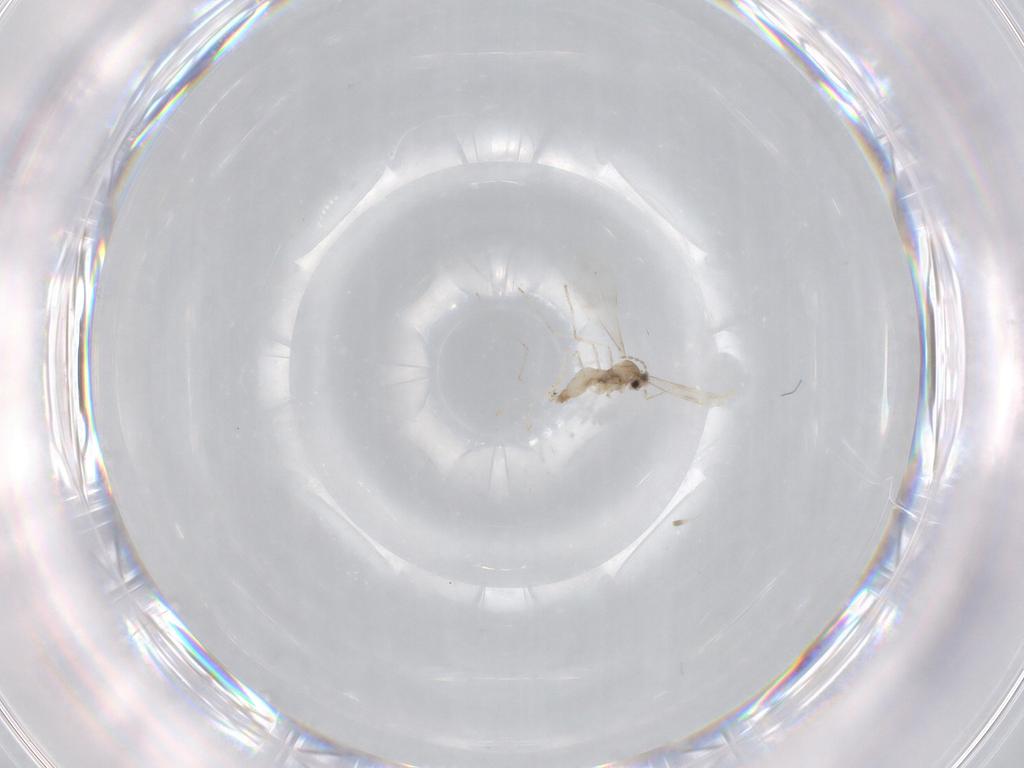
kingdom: Animalia
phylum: Arthropoda
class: Insecta
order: Diptera
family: Cecidomyiidae
